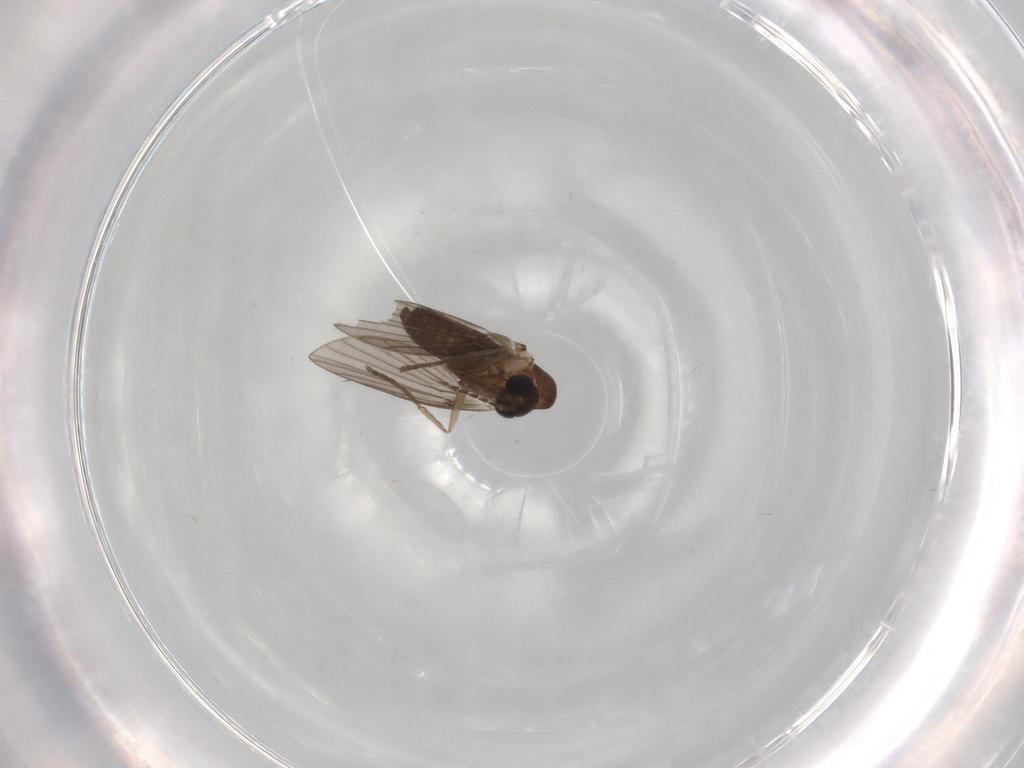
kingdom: Animalia
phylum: Arthropoda
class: Insecta
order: Diptera
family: Psychodidae
